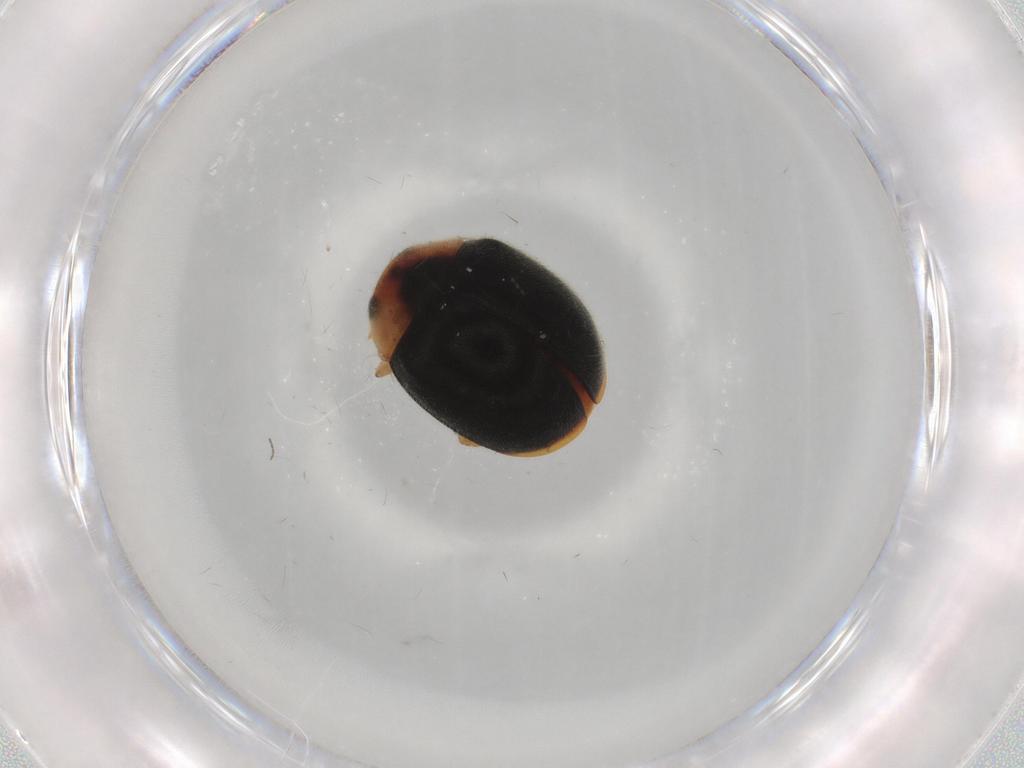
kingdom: Animalia
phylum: Arthropoda
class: Insecta
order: Coleoptera
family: Coccinellidae
